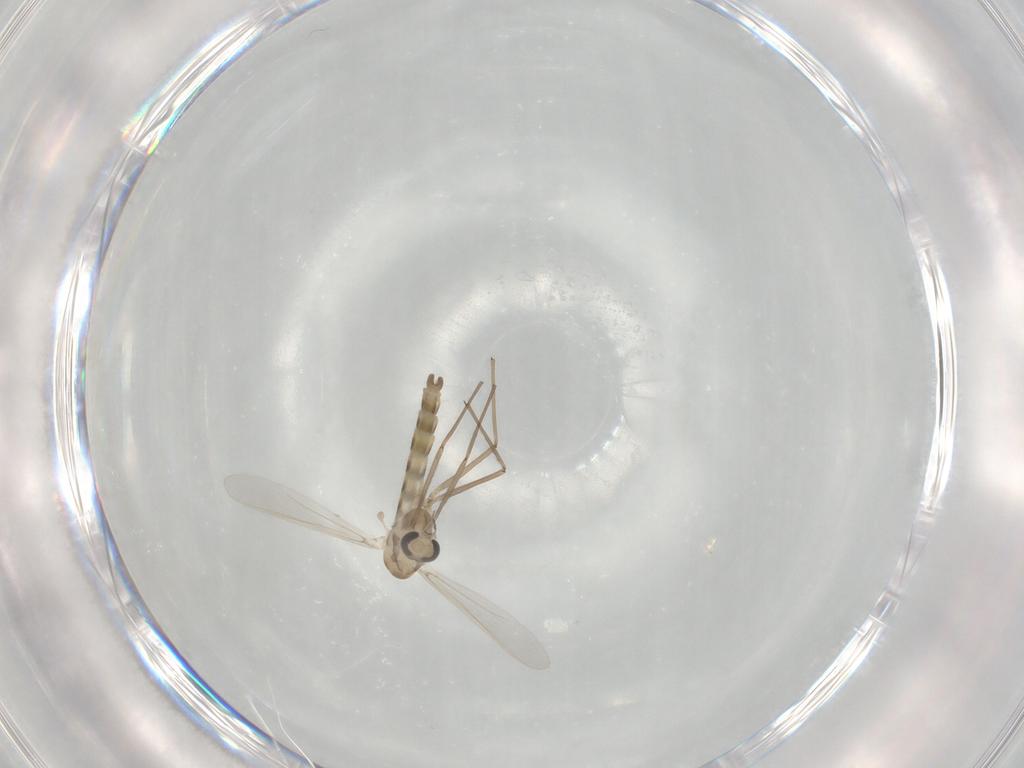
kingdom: Animalia
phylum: Arthropoda
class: Insecta
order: Diptera
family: Chironomidae
